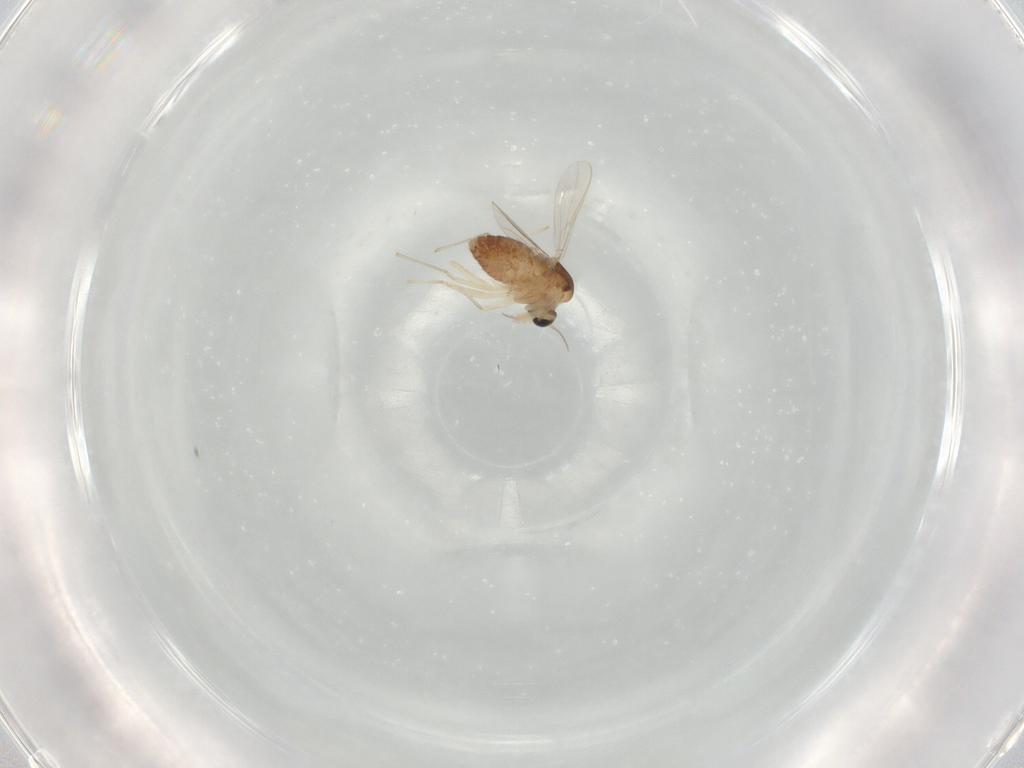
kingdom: Animalia
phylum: Arthropoda
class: Insecta
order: Diptera
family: Chironomidae
